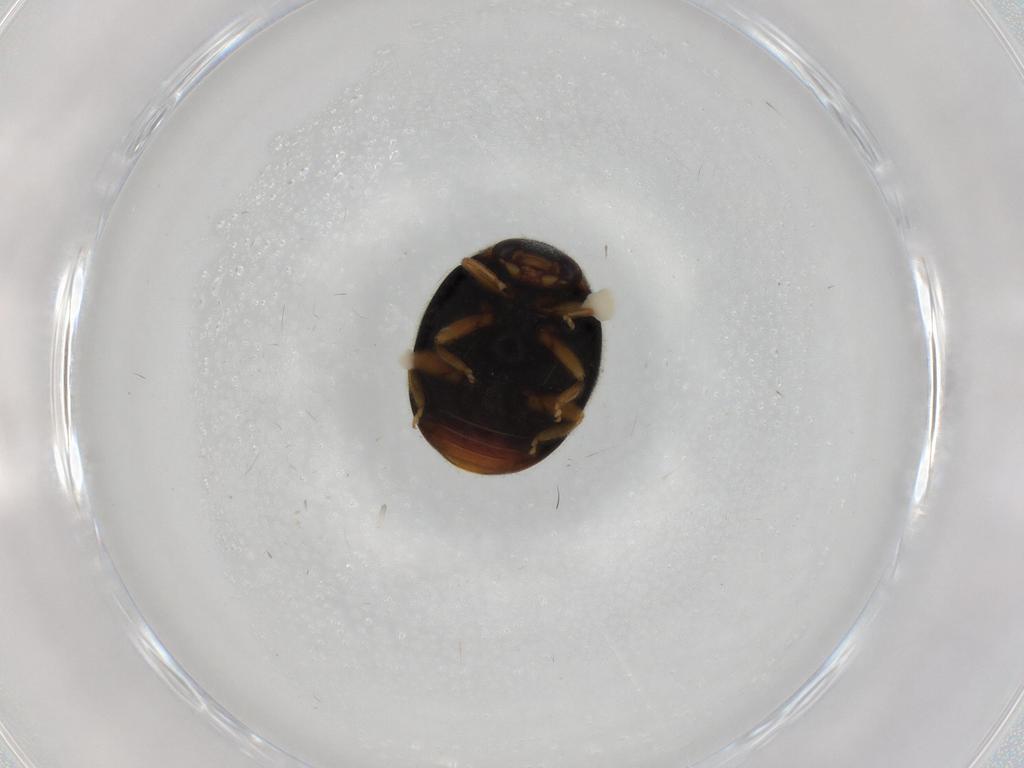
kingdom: Animalia
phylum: Arthropoda
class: Insecta
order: Coleoptera
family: Coccinellidae
